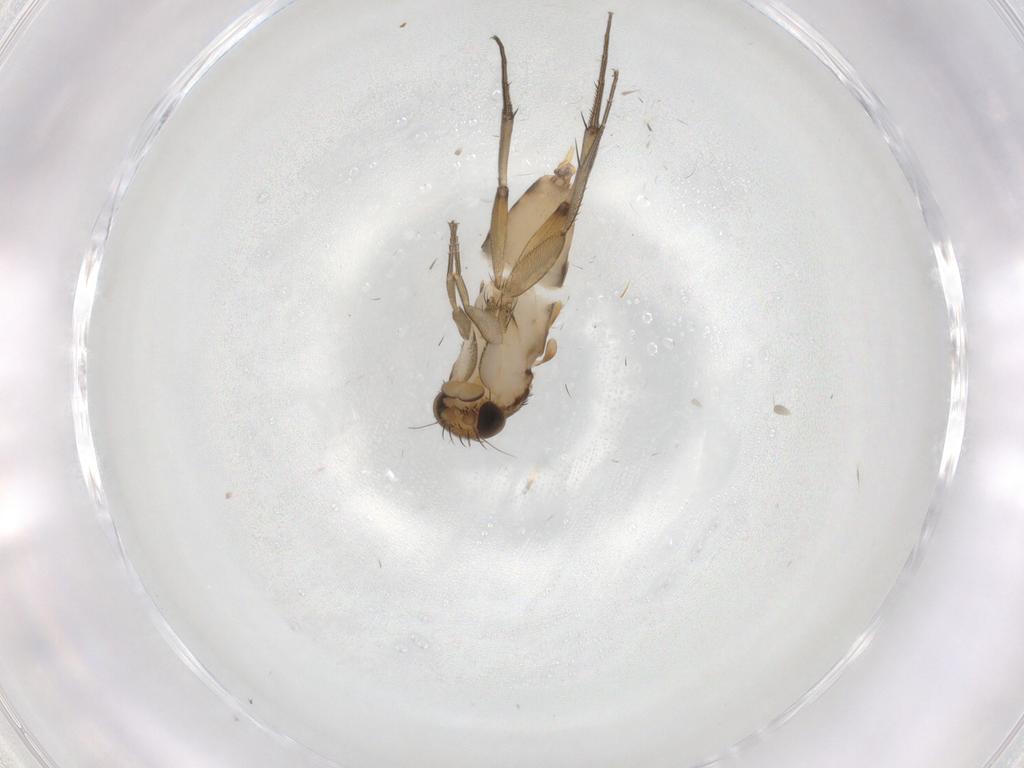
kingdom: Animalia
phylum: Arthropoda
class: Insecta
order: Diptera
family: Phoridae
